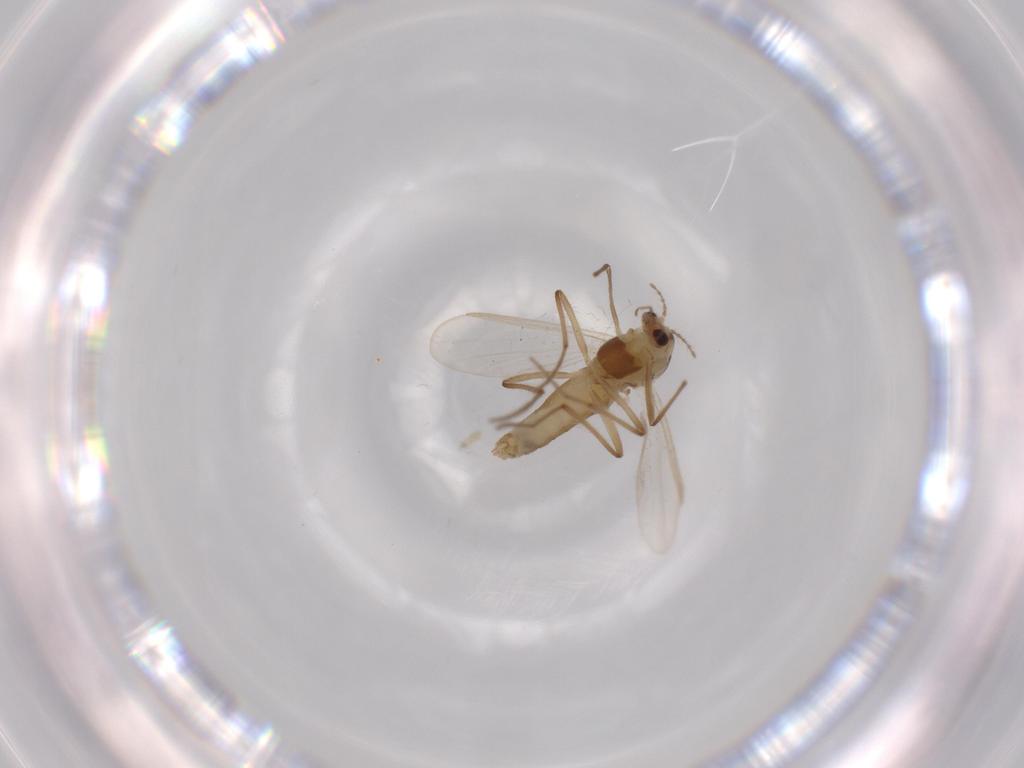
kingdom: Animalia
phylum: Arthropoda
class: Insecta
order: Diptera
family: Chironomidae
